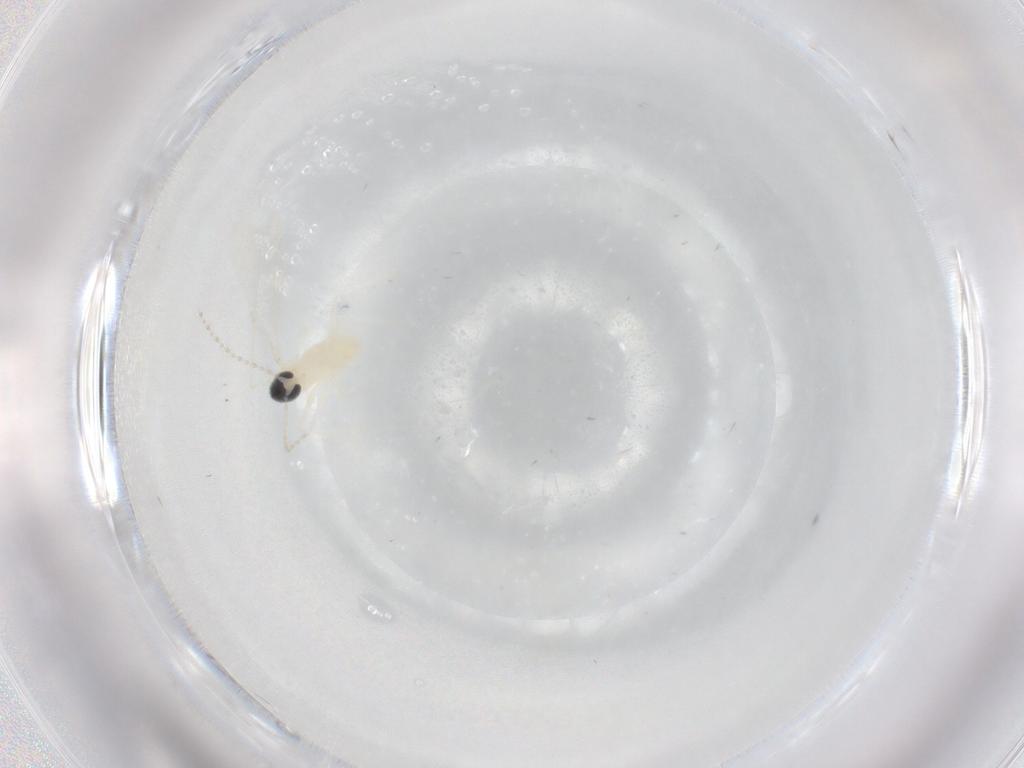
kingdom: Animalia
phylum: Arthropoda
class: Insecta
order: Diptera
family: Cecidomyiidae
